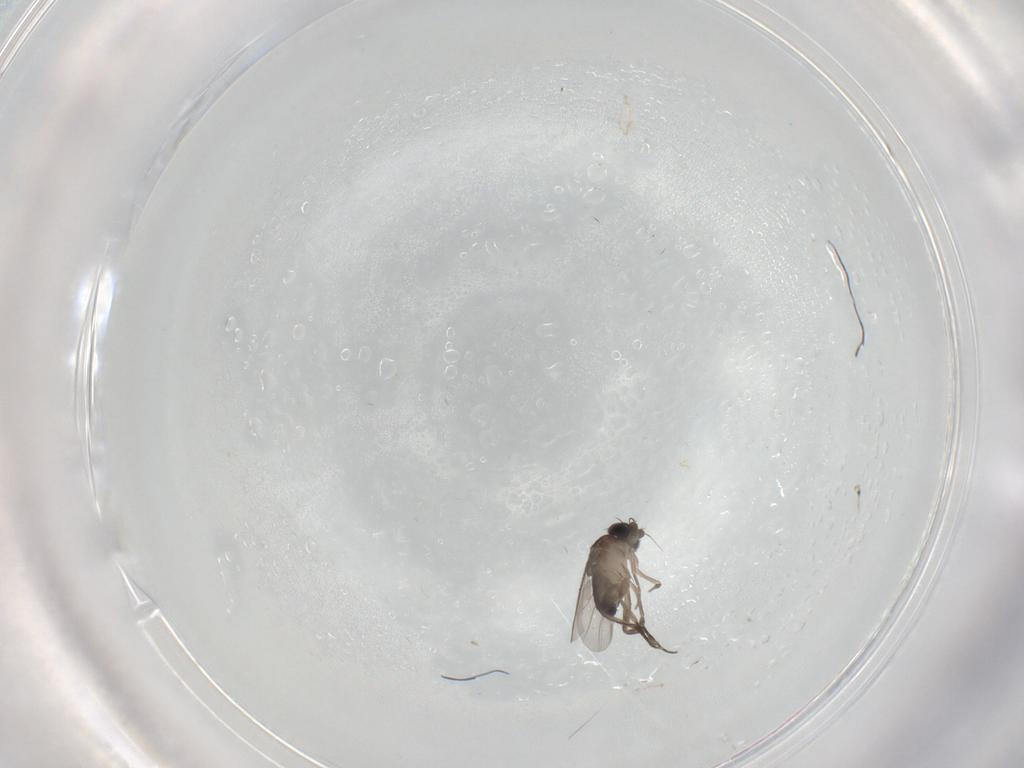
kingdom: Animalia
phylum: Arthropoda
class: Insecta
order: Diptera
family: Phoridae
